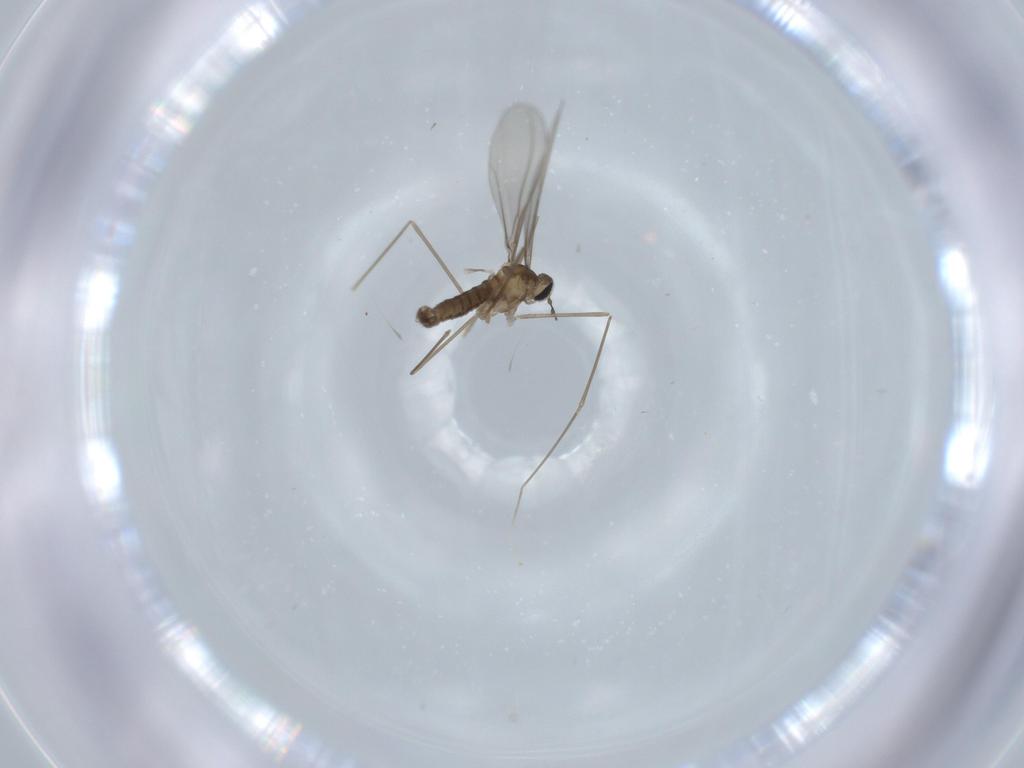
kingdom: Animalia
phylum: Arthropoda
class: Insecta
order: Diptera
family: Cecidomyiidae
